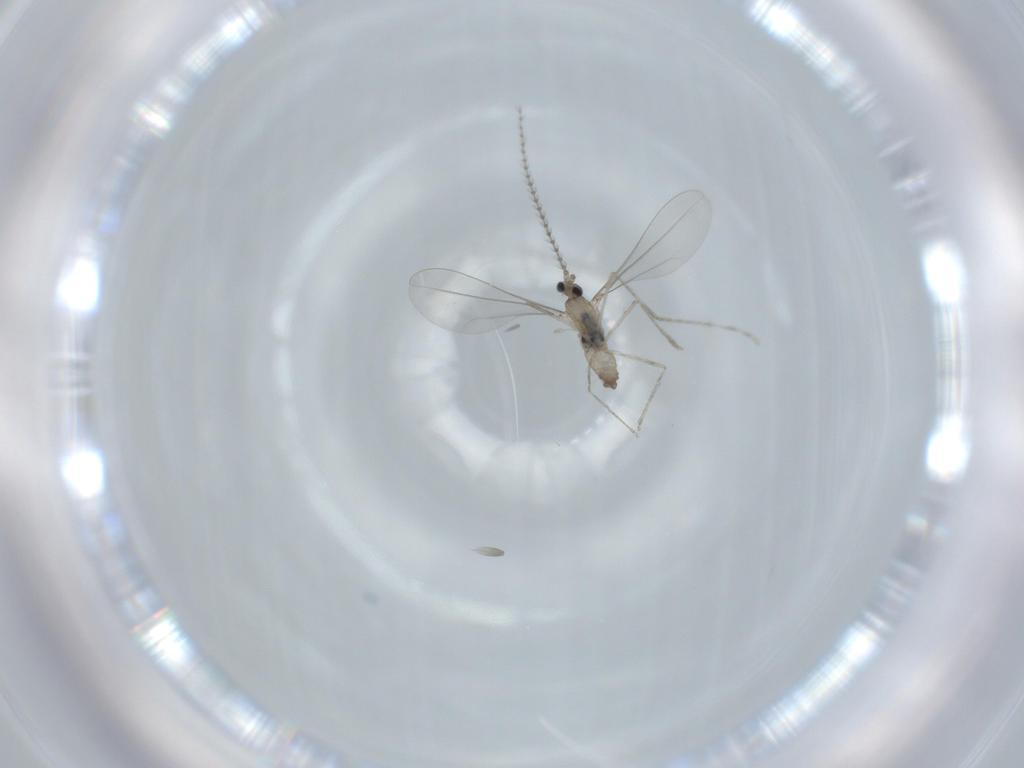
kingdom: Animalia
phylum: Arthropoda
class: Insecta
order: Diptera
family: Cecidomyiidae
